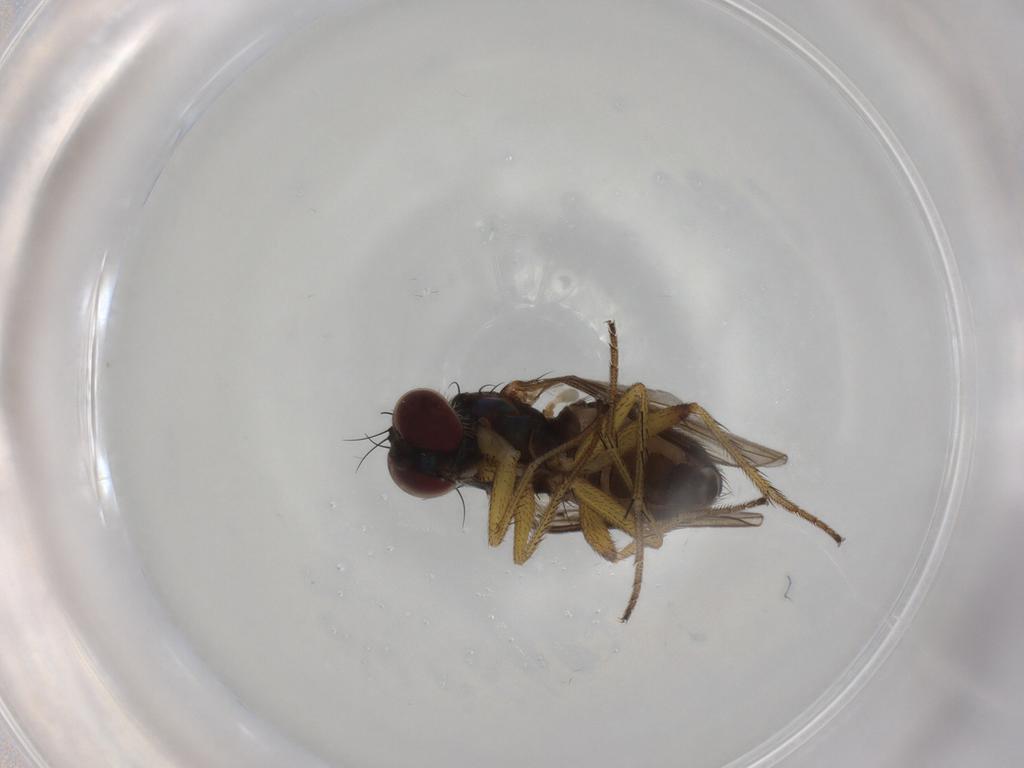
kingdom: Animalia
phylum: Arthropoda
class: Insecta
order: Diptera
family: Dolichopodidae
